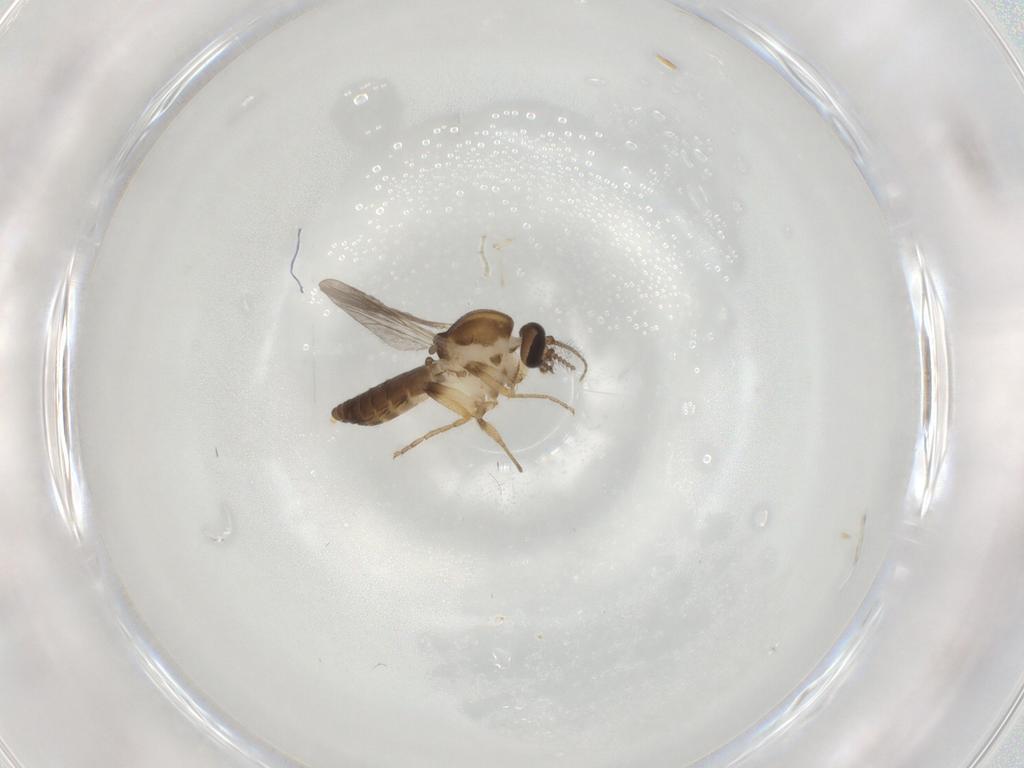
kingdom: Animalia
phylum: Arthropoda
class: Insecta
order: Diptera
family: Ceratopogonidae
